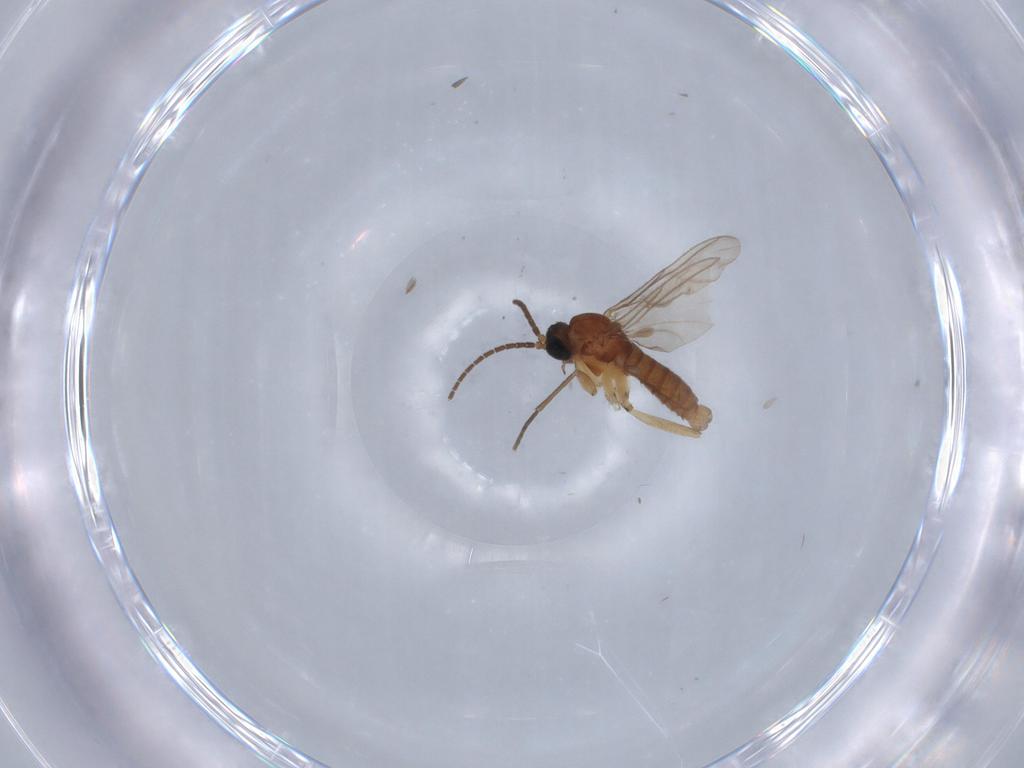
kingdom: Animalia
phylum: Arthropoda
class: Insecta
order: Diptera
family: Sciaridae
